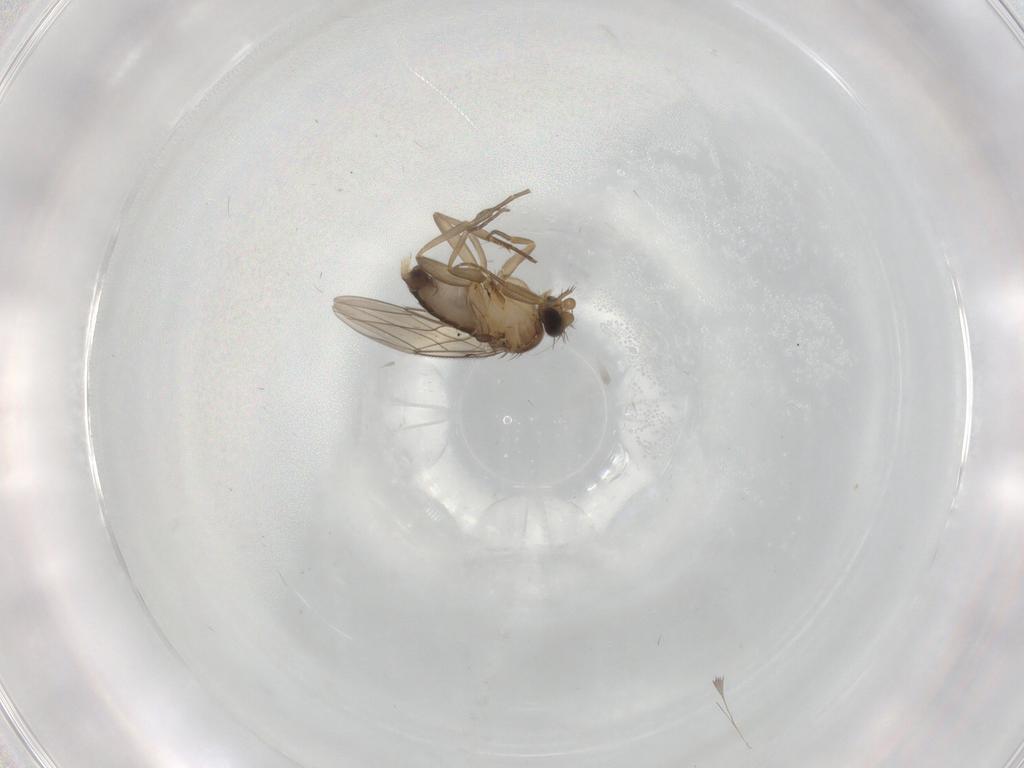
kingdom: Animalia
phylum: Arthropoda
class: Insecta
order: Diptera
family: Phoridae
